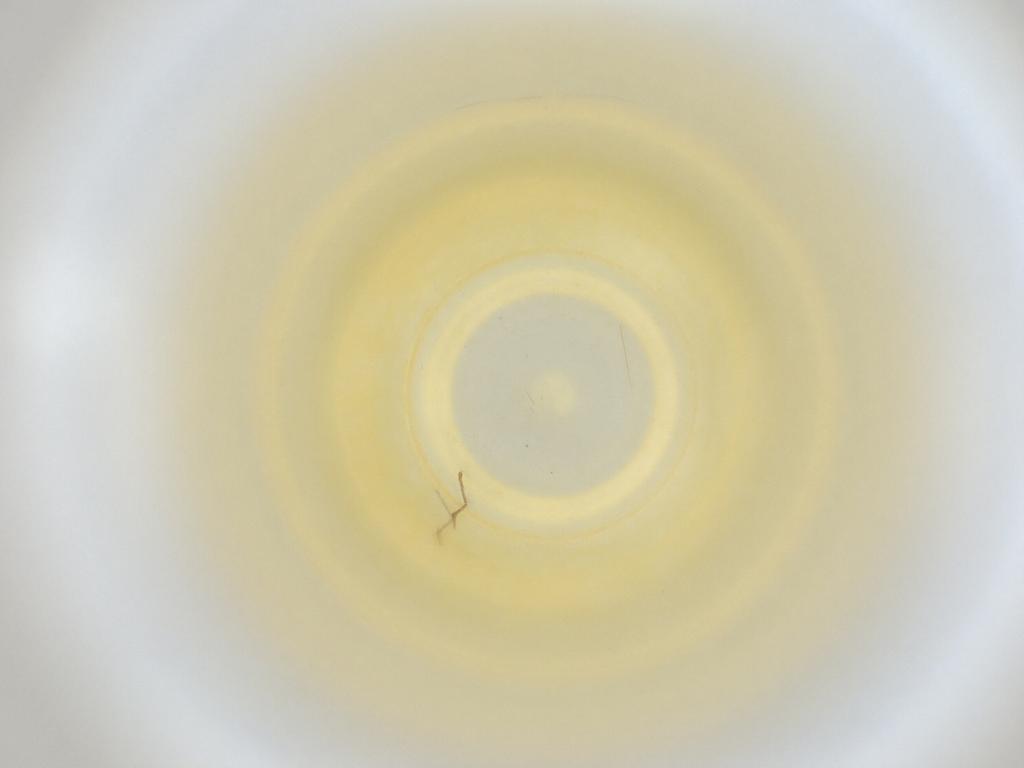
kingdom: Animalia
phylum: Arthropoda
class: Insecta
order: Diptera
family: Cecidomyiidae
